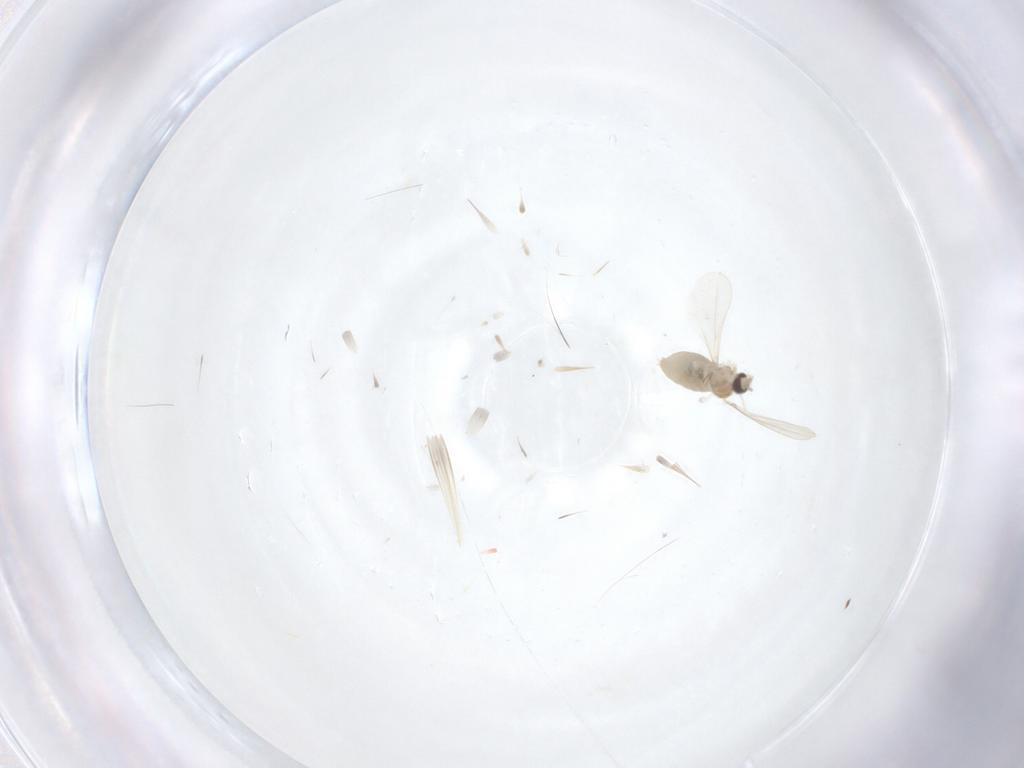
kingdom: Animalia
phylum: Arthropoda
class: Insecta
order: Diptera
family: Cecidomyiidae
